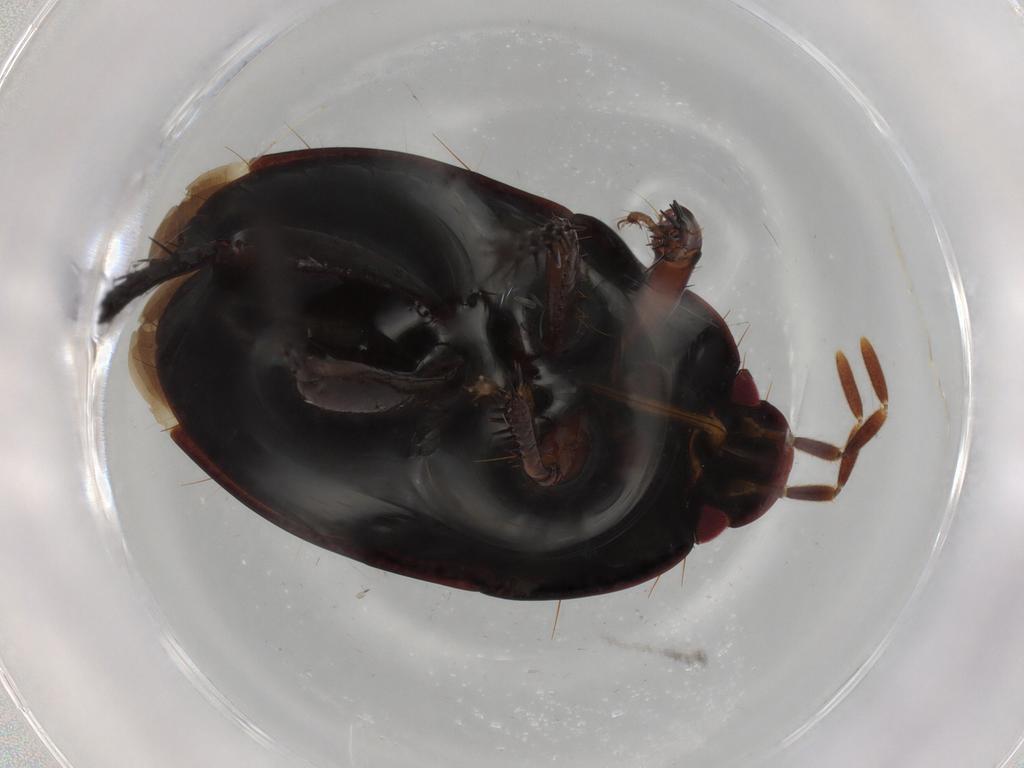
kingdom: Animalia
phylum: Arthropoda
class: Insecta
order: Hemiptera
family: Cydnidae
